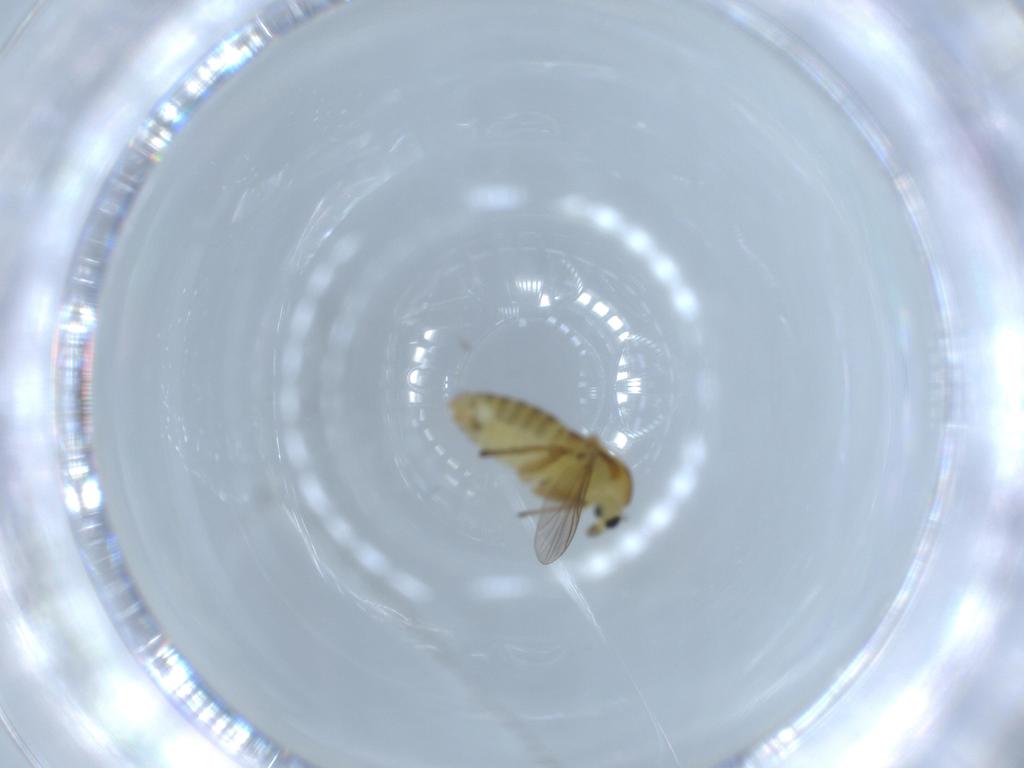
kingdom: Animalia
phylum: Arthropoda
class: Insecta
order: Diptera
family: Chironomidae
